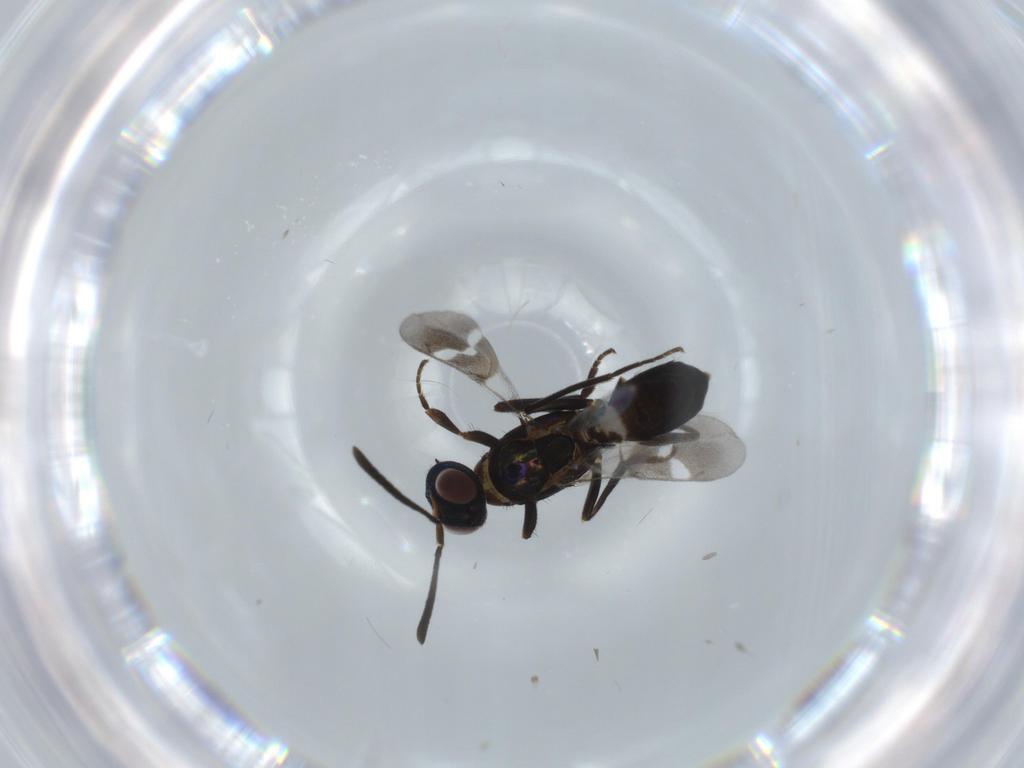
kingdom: Animalia
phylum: Arthropoda
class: Insecta
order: Hymenoptera
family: Eupelmidae
